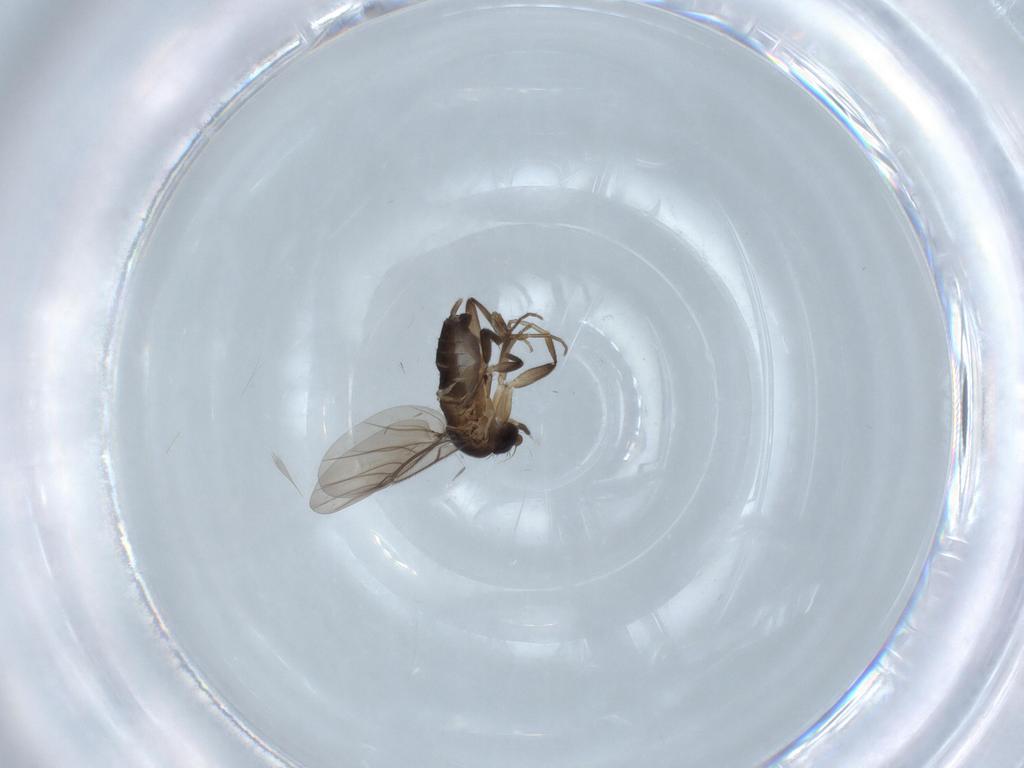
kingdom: Animalia
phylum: Arthropoda
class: Insecta
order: Diptera
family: Phoridae
